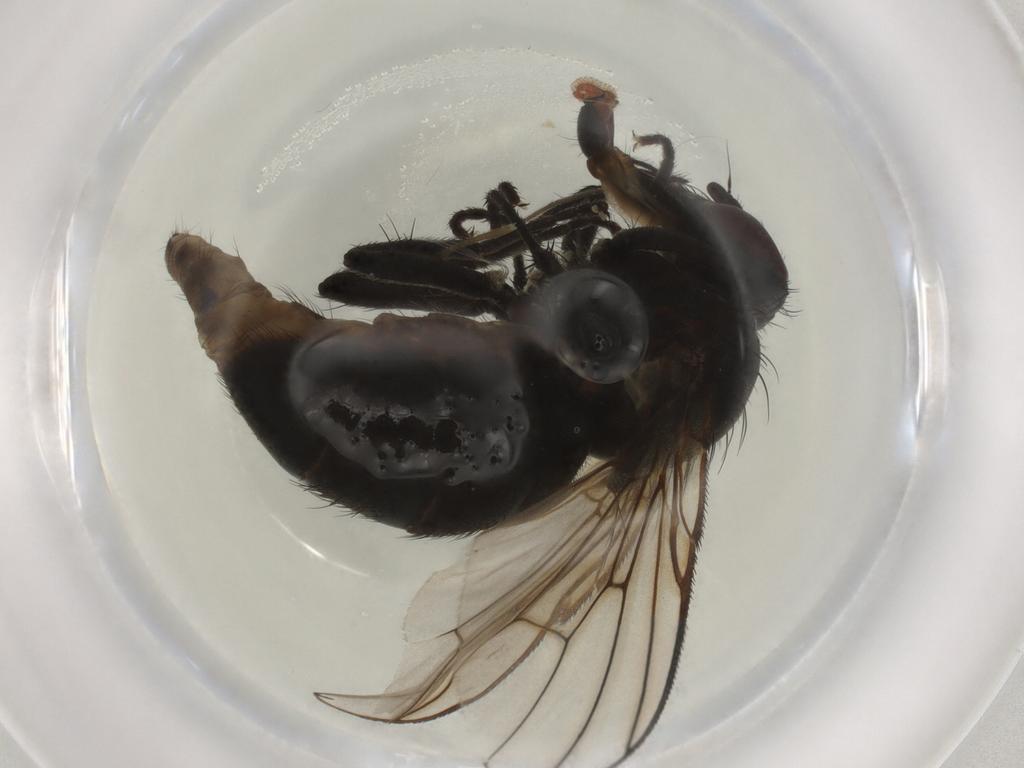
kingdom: Animalia
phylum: Arthropoda
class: Insecta
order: Diptera
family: Muscidae
